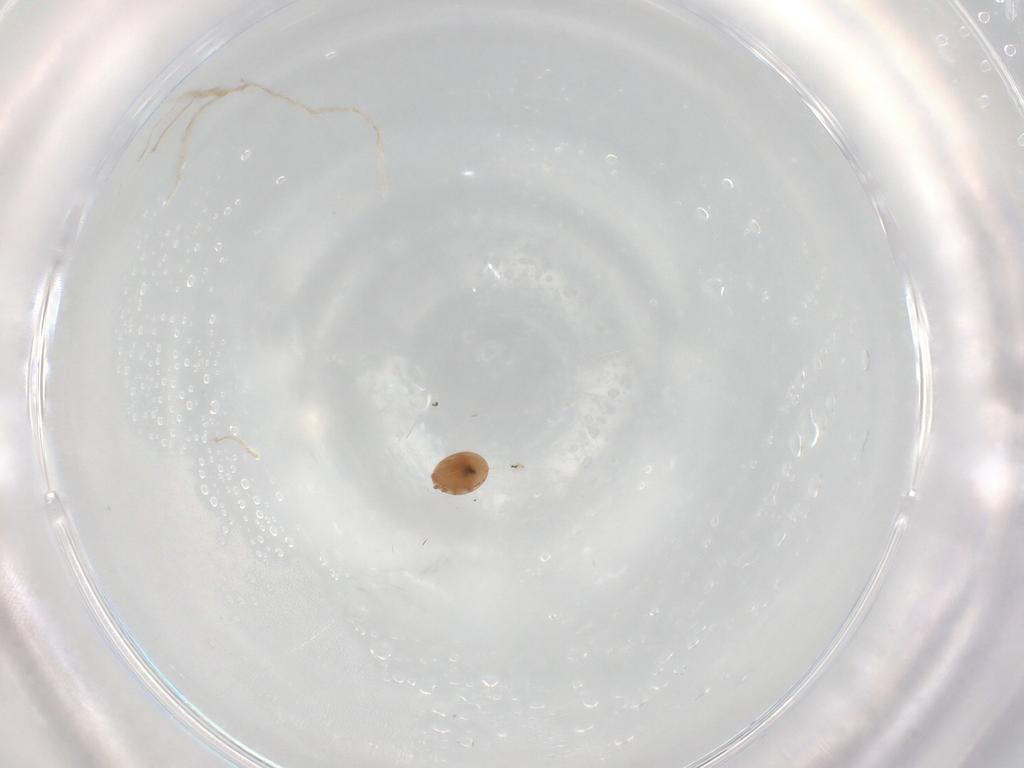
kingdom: Animalia
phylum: Arthropoda
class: Arachnida
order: Mesostigmata
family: Trematuridae
